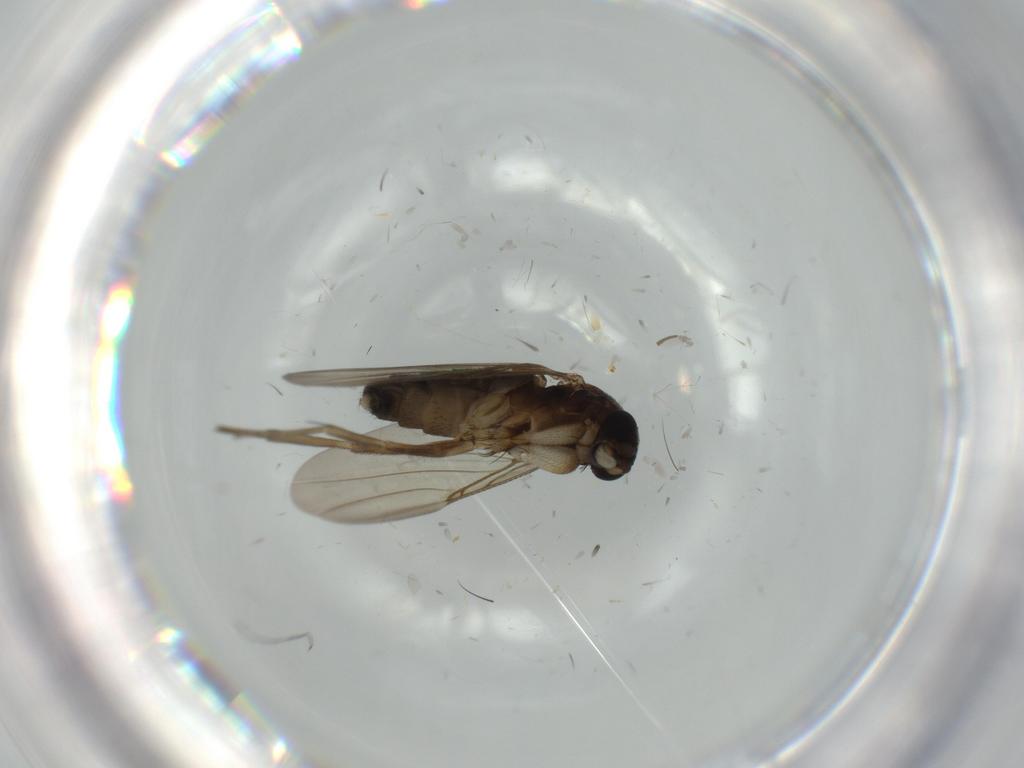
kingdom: Animalia
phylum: Arthropoda
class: Insecta
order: Diptera
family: Phoridae
